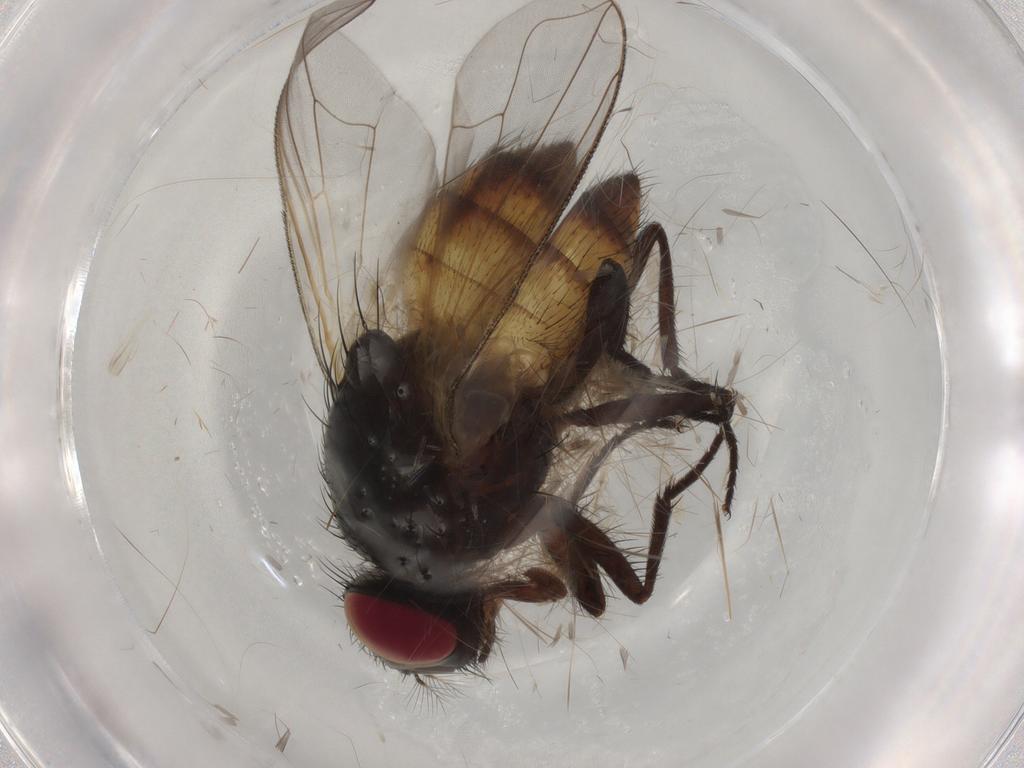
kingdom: Animalia
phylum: Arthropoda
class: Insecta
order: Diptera
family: Muscidae
